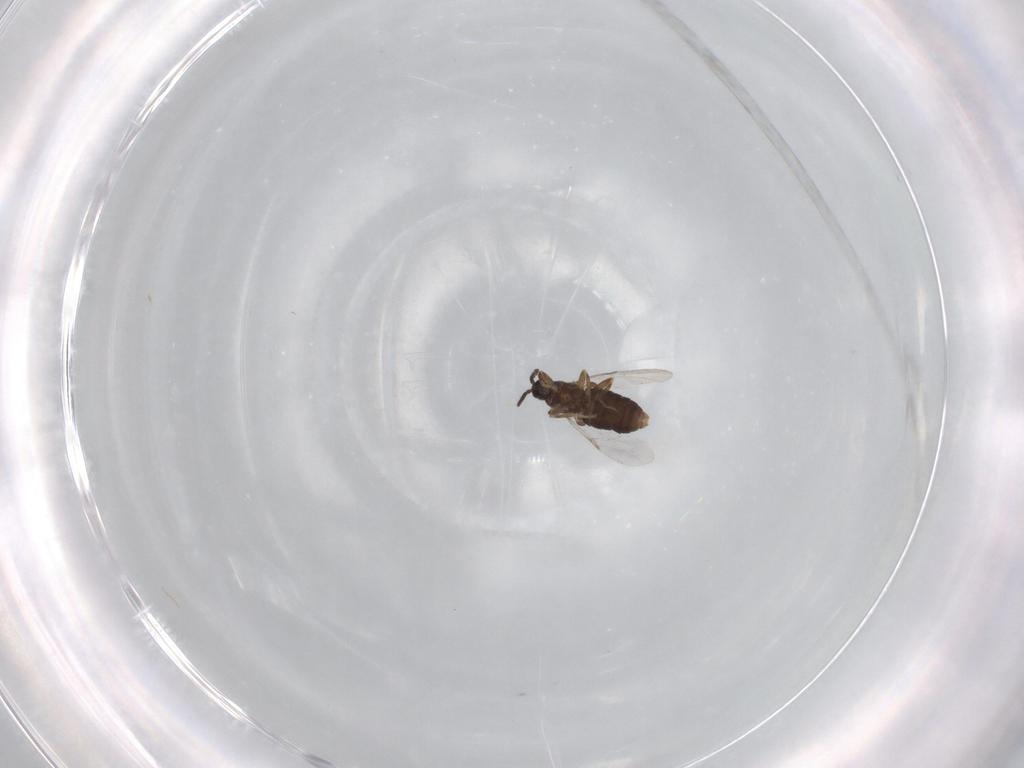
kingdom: Animalia
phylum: Arthropoda
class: Insecta
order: Diptera
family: Scatopsidae
